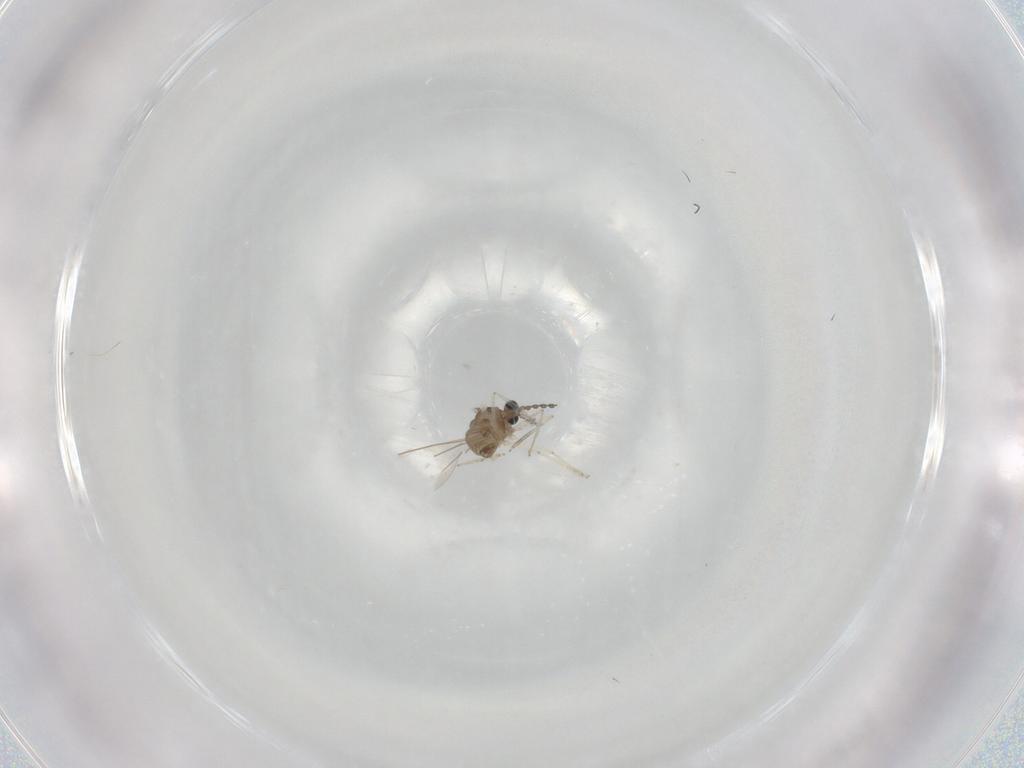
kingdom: Animalia
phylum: Arthropoda
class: Insecta
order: Diptera
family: Cecidomyiidae
